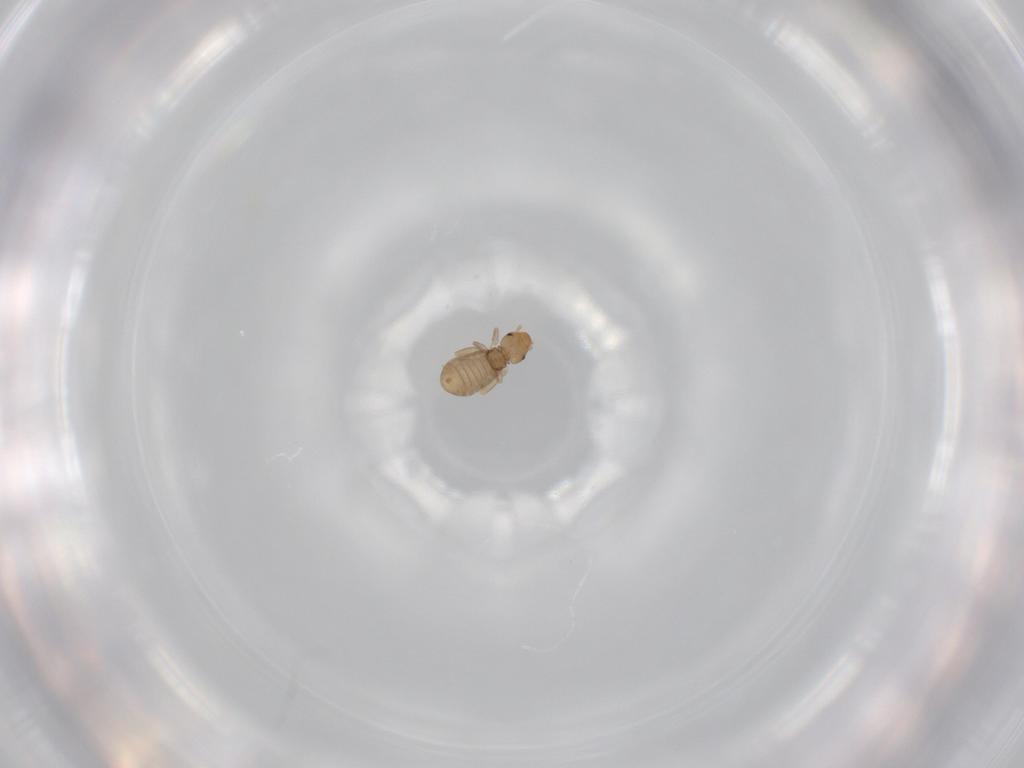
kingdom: Animalia
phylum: Arthropoda
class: Insecta
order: Psocodea
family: Liposcelididae
